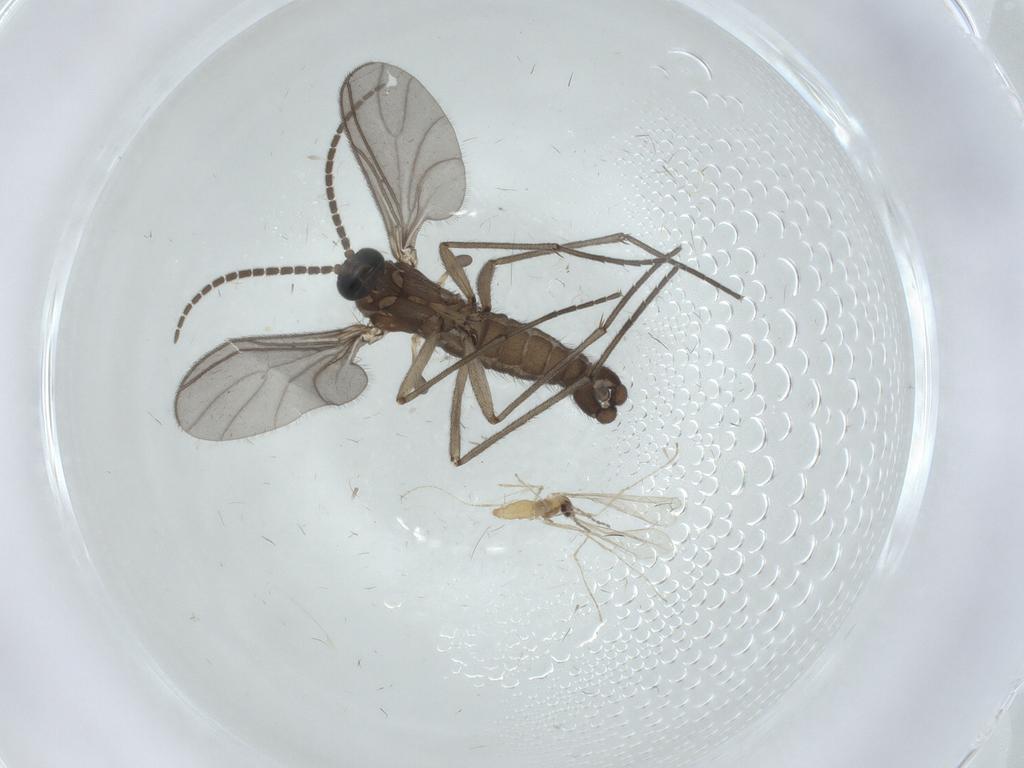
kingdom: Animalia
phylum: Arthropoda
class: Insecta
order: Diptera
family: Sciaridae
